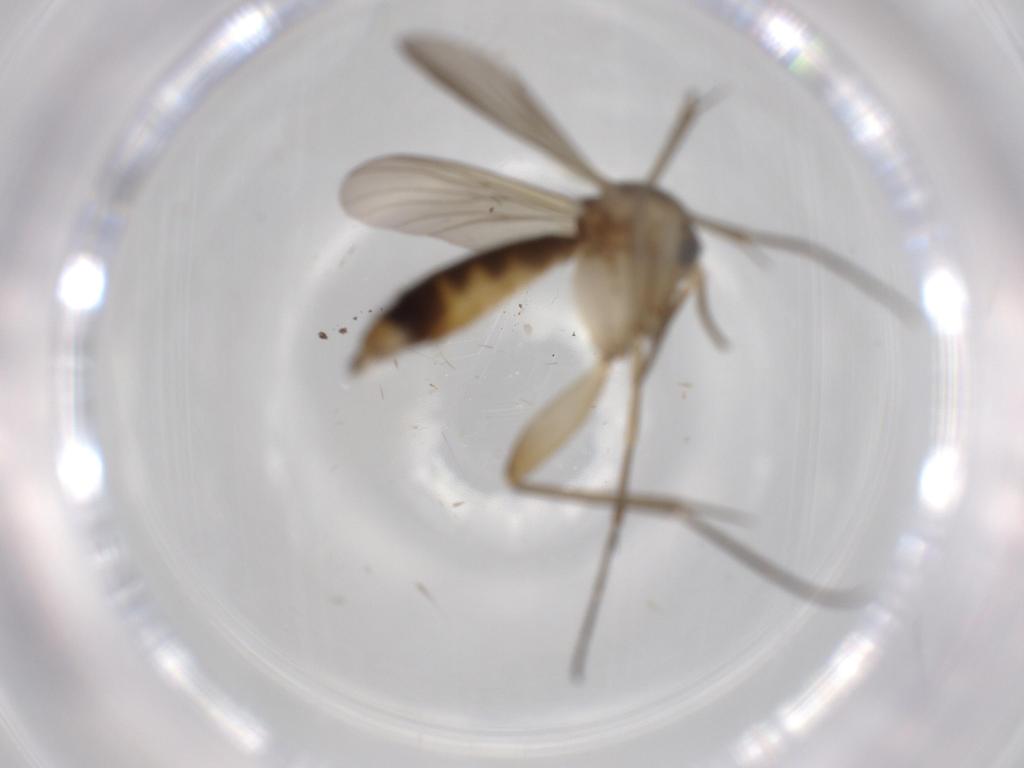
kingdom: Animalia
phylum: Arthropoda
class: Insecta
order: Diptera
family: Mycetophilidae
